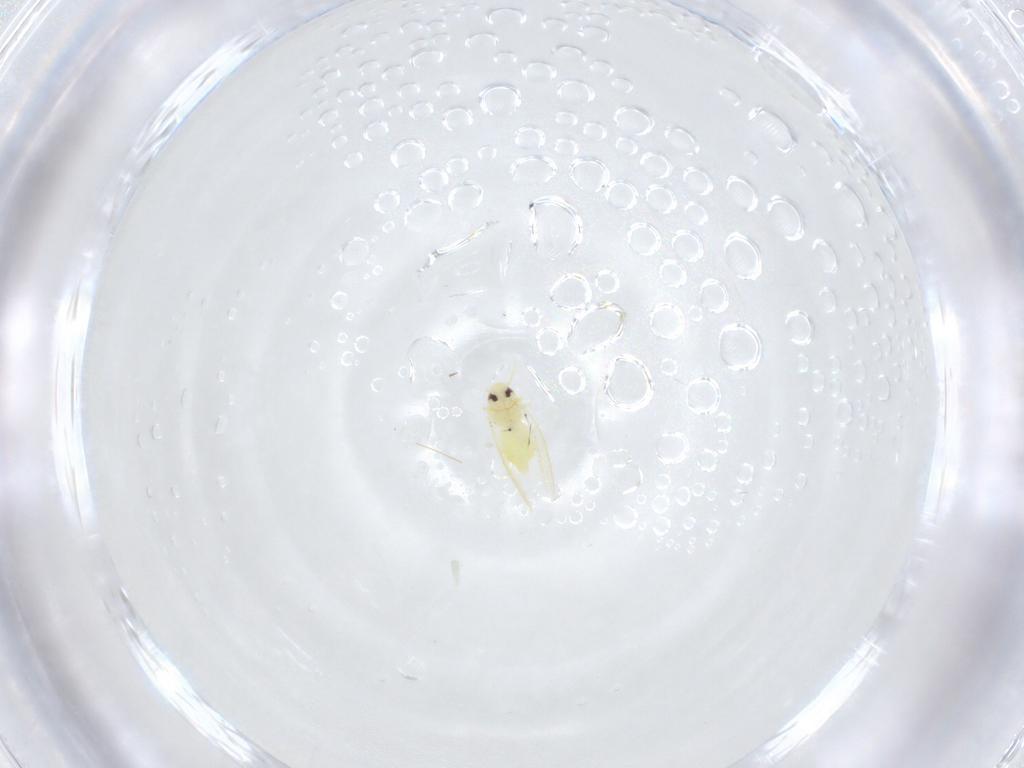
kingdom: Animalia
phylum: Arthropoda
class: Insecta
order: Hemiptera
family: Aleyrodidae
